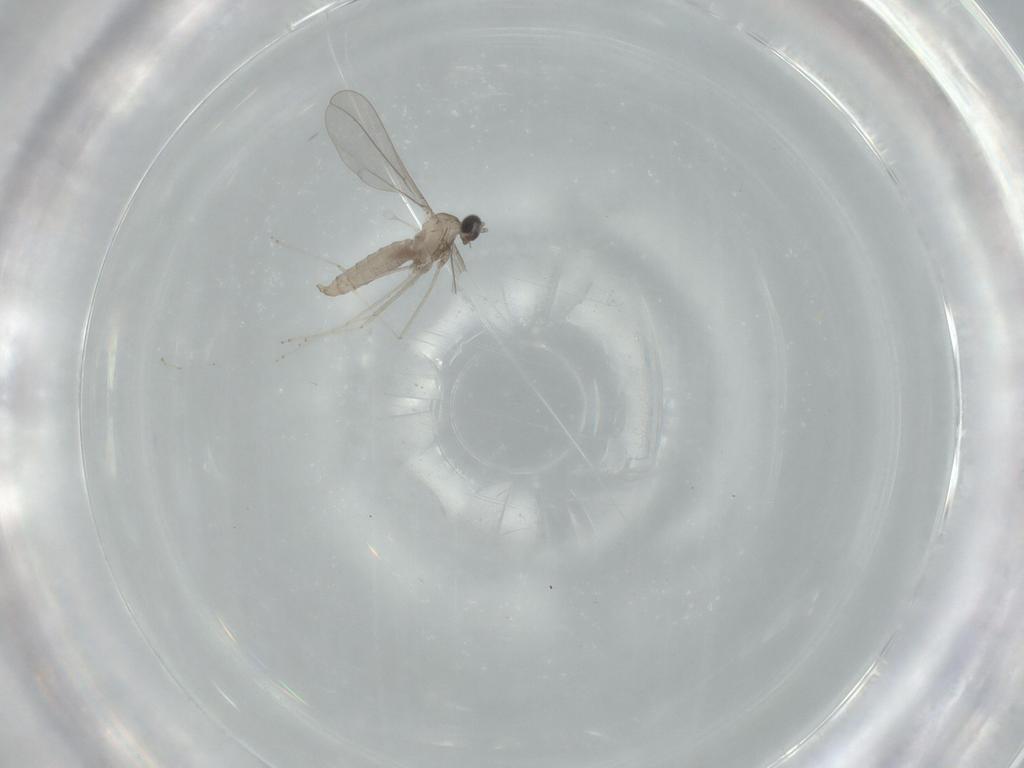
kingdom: Animalia
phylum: Arthropoda
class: Insecta
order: Diptera
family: Sciaridae
